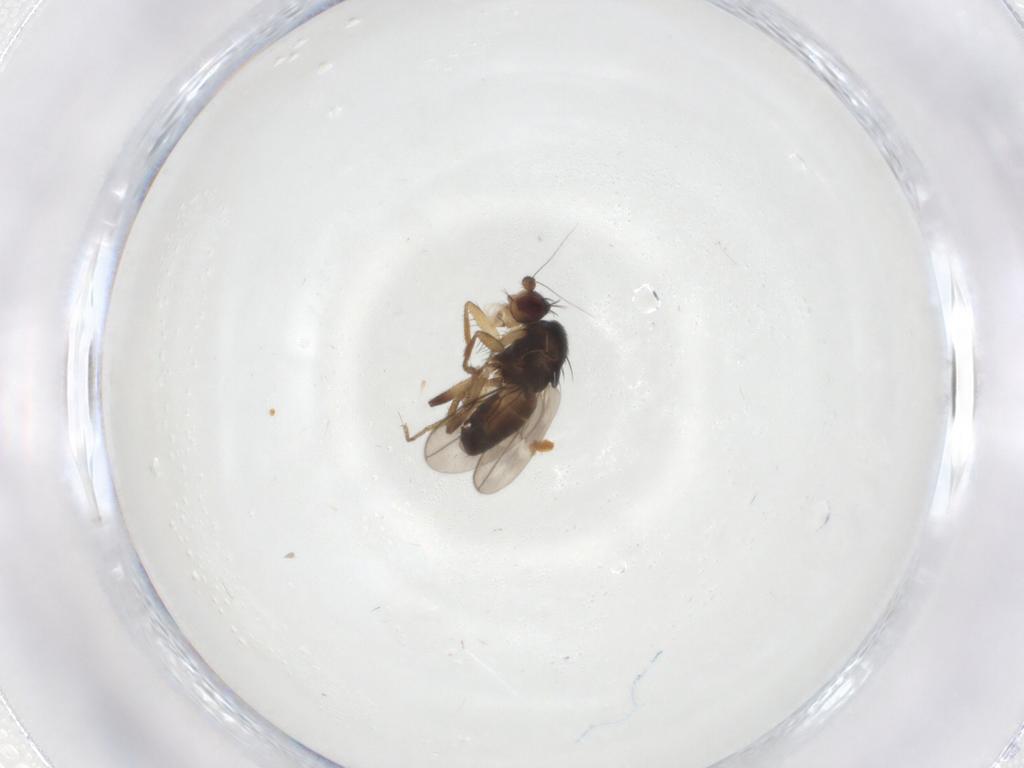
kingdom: Animalia
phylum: Arthropoda
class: Insecta
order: Diptera
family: Sphaeroceridae
